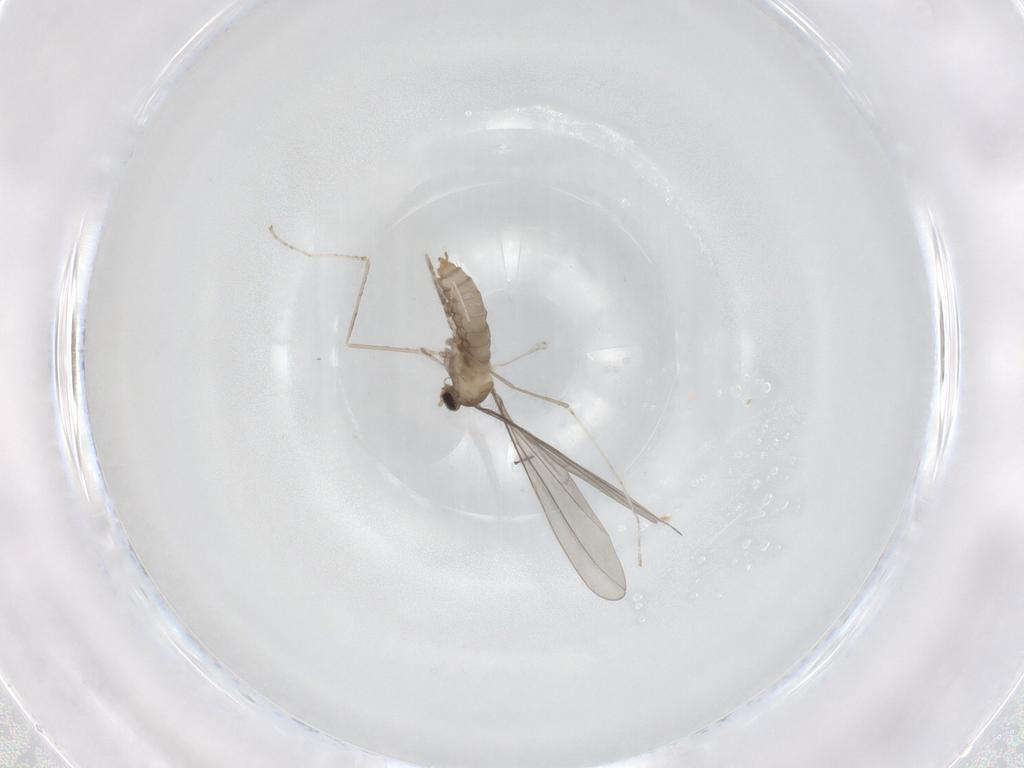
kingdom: Animalia
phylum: Arthropoda
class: Insecta
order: Diptera
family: Cecidomyiidae
